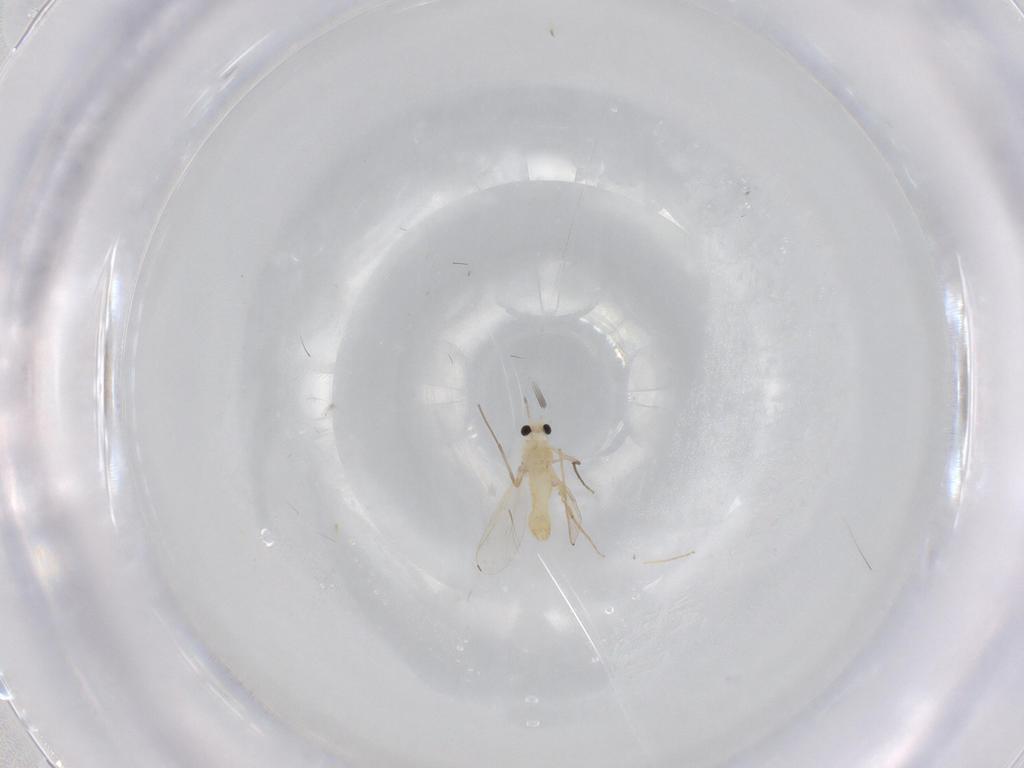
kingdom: Animalia
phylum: Arthropoda
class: Insecta
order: Diptera
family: Chironomidae
